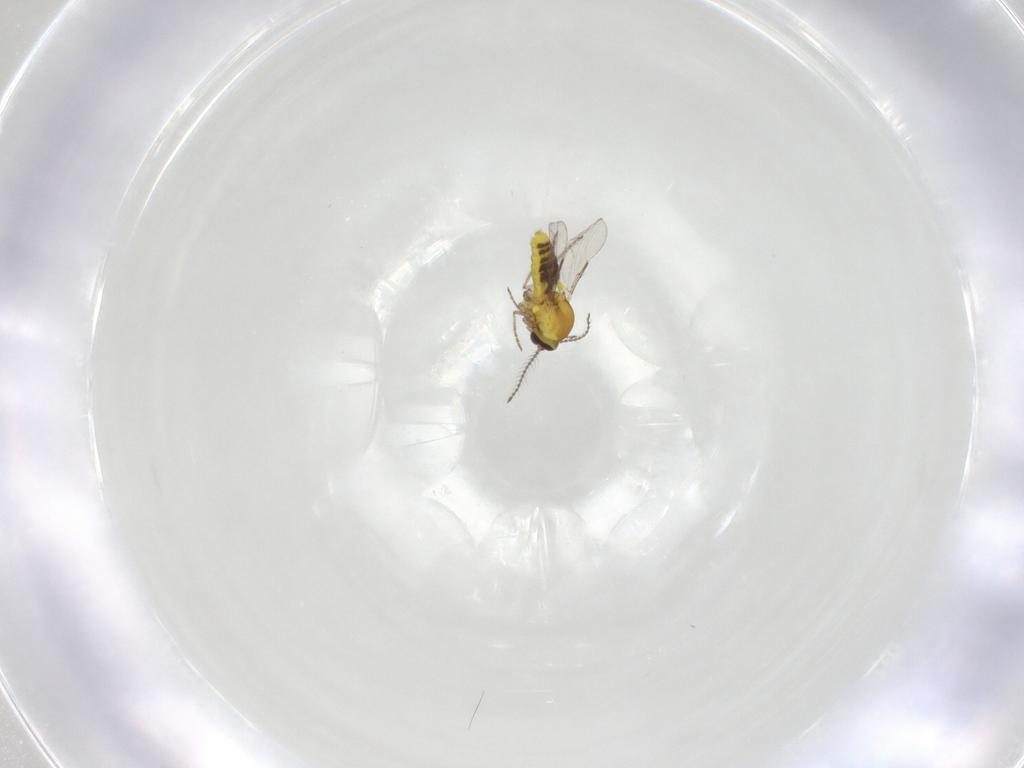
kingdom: Animalia
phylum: Arthropoda
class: Insecta
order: Diptera
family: Ceratopogonidae
